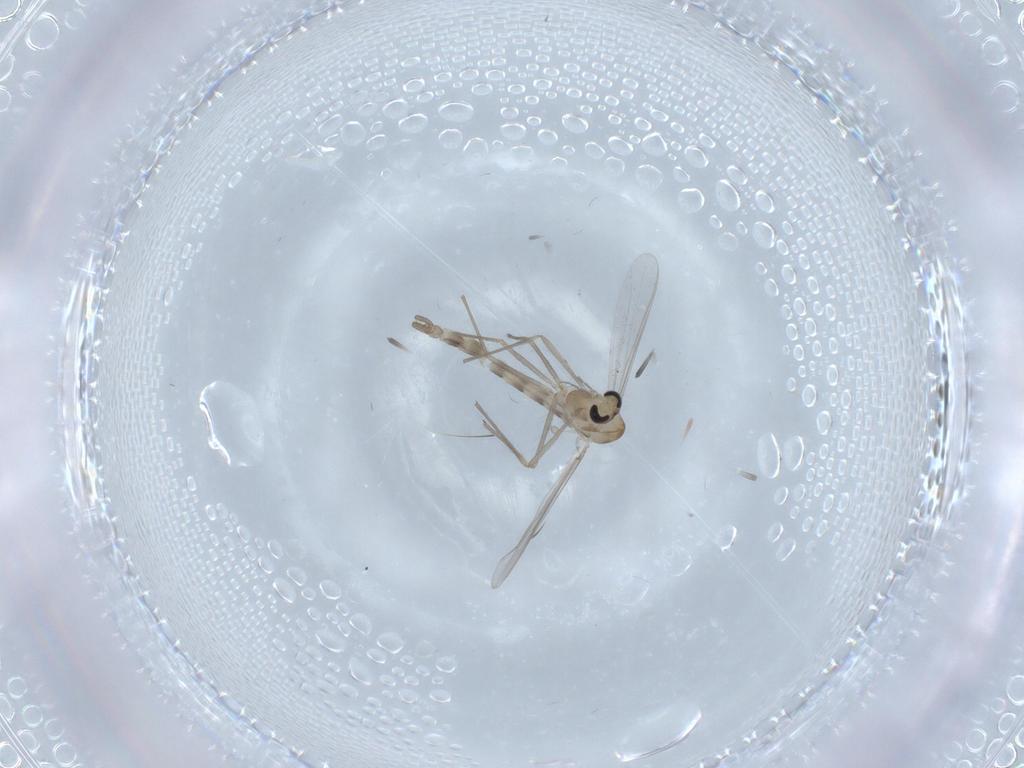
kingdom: Animalia
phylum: Arthropoda
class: Insecta
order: Diptera
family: Chironomidae
